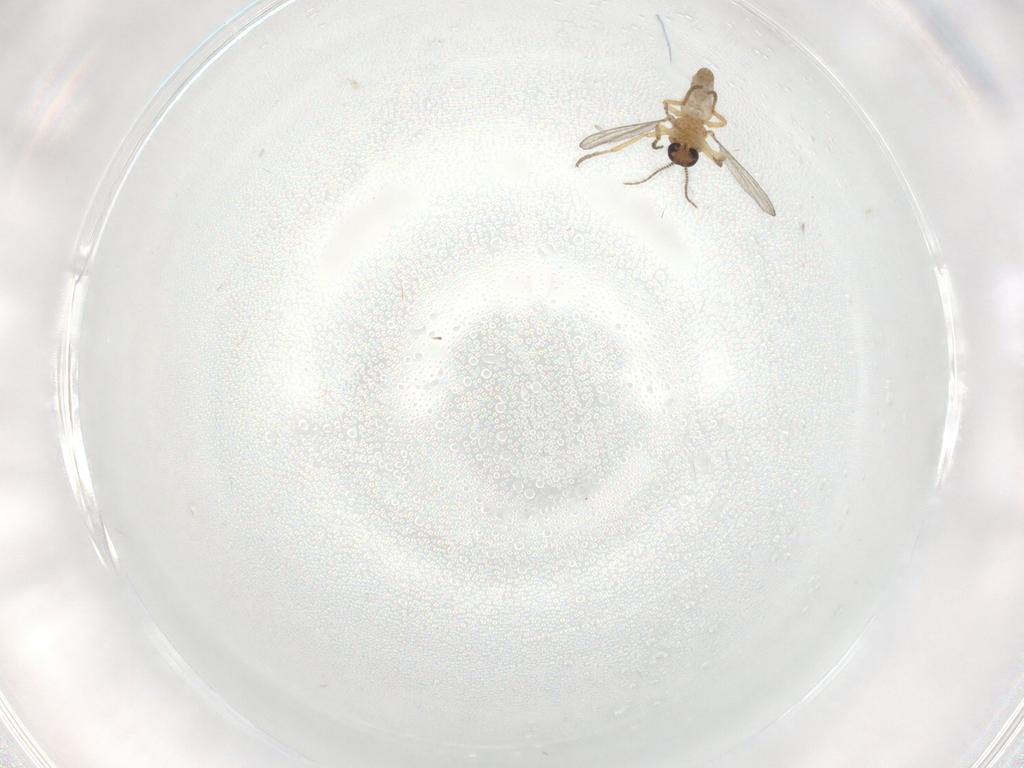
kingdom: Animalia
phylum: Arthropoda
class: Insecta
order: Diptera
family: Ceratopogonidae
